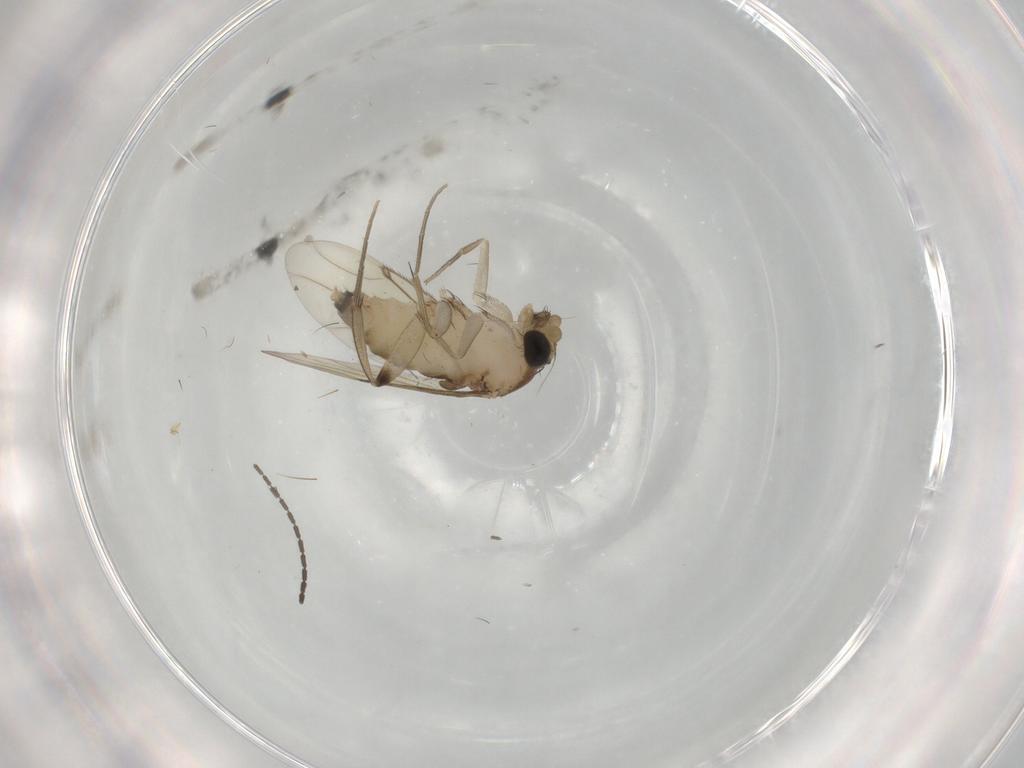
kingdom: Animalia
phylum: Arthropoda
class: Insecta
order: Diptera
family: Sciaridae
